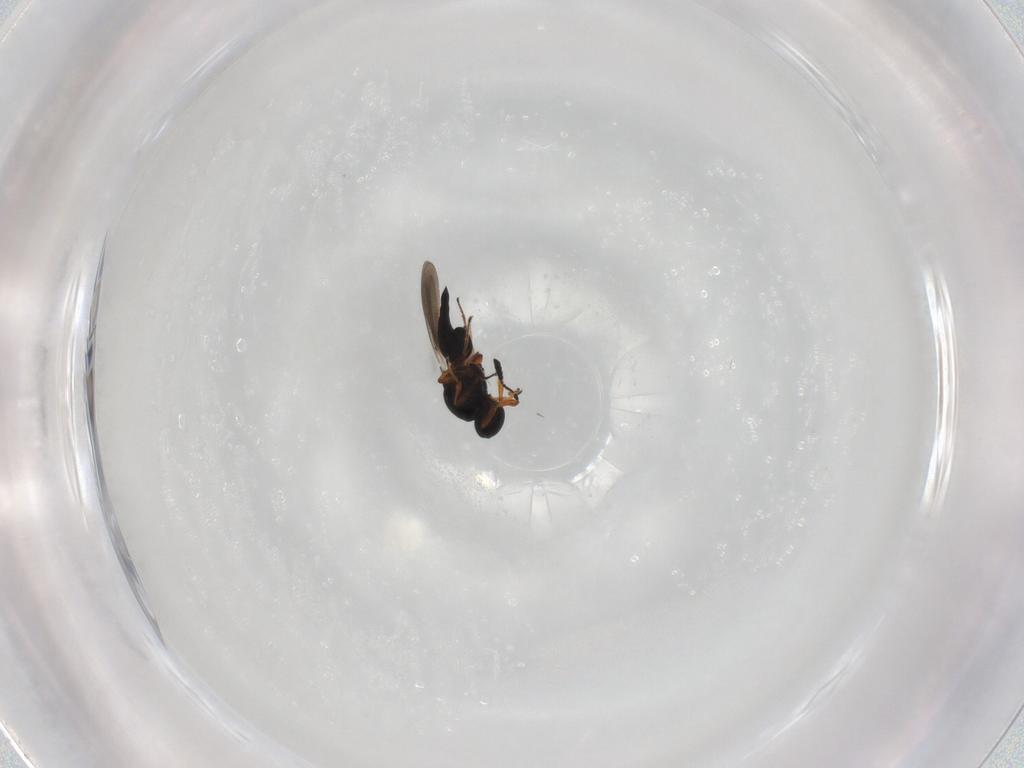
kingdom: Animalia
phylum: Arthropoda
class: Insecta
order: Hymenoptera
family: Platygastridae
